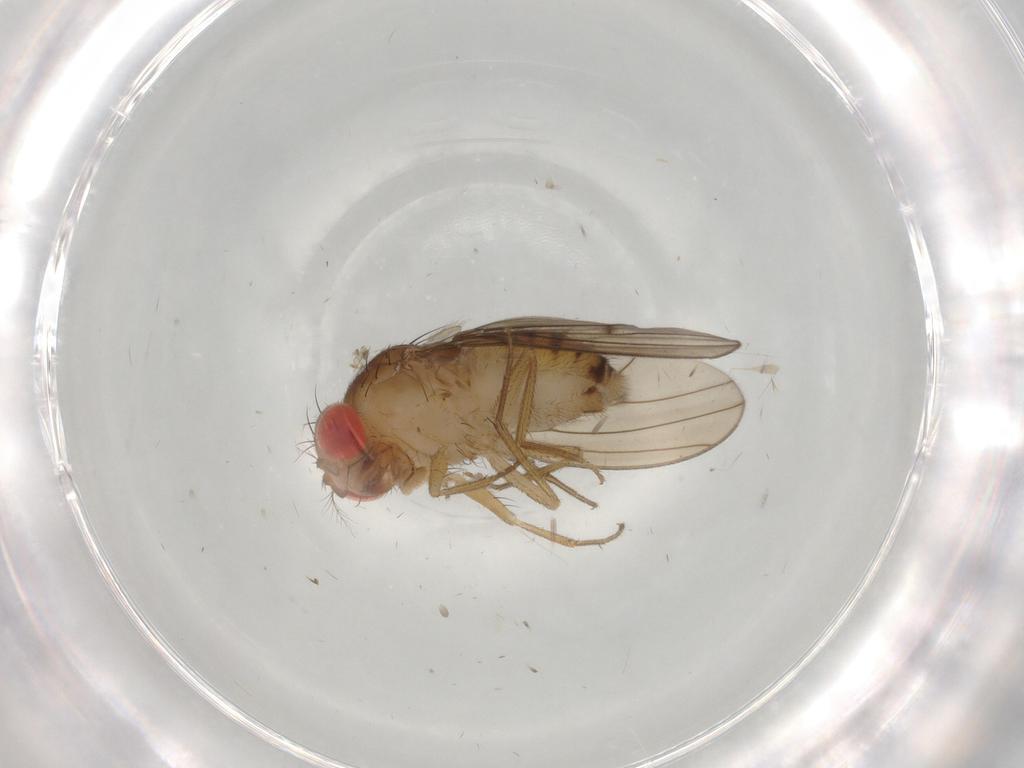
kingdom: Animalia
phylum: Arthropoda
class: Insecta
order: Diptera
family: Drosophilidae
